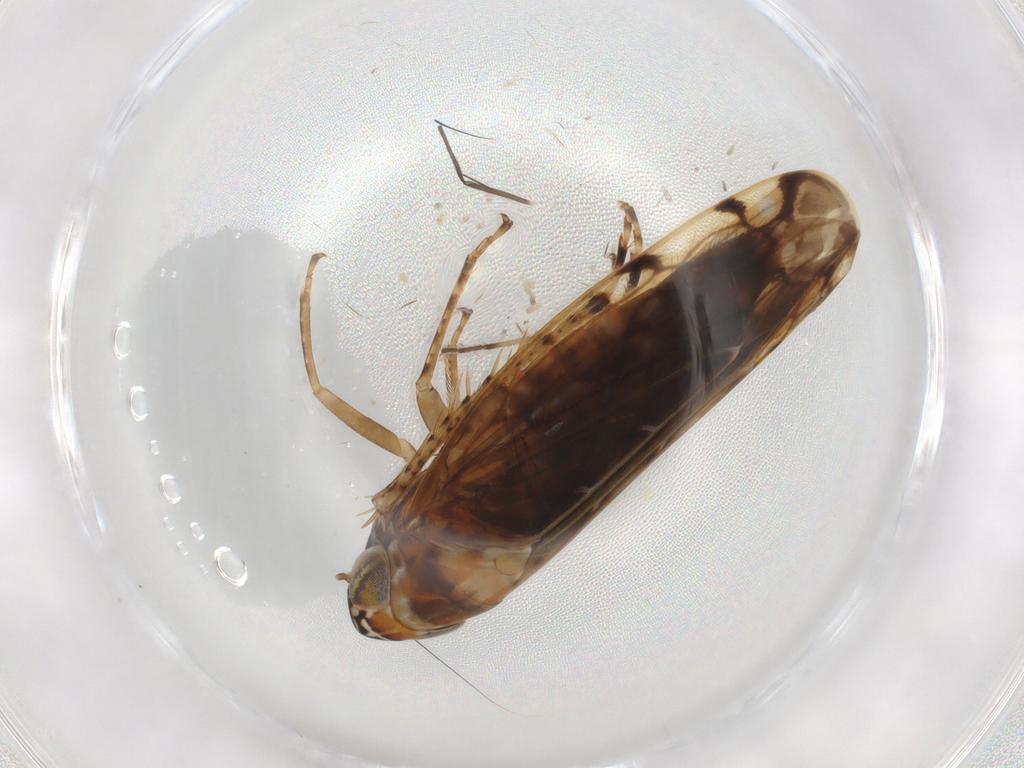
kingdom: Animalia
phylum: Arthropoda
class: Insecta
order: Hemiptera
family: Cicadellidae
